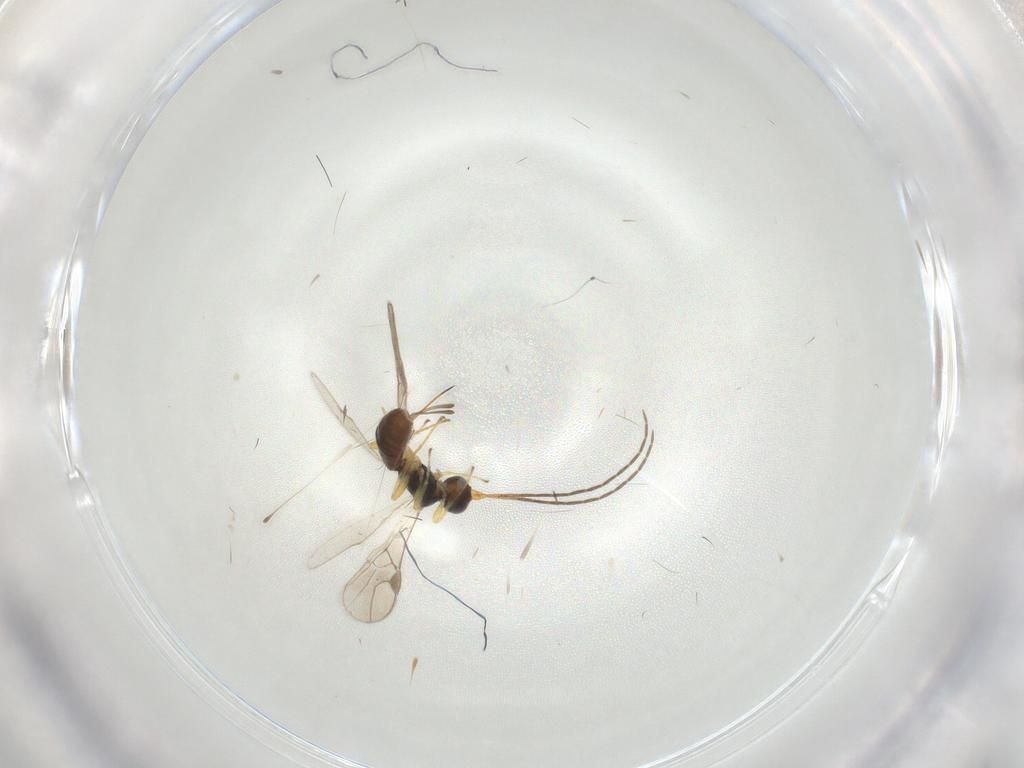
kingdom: Animalia
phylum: Arthropoda
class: Insecta
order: Hymenoptera
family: Braconidae
